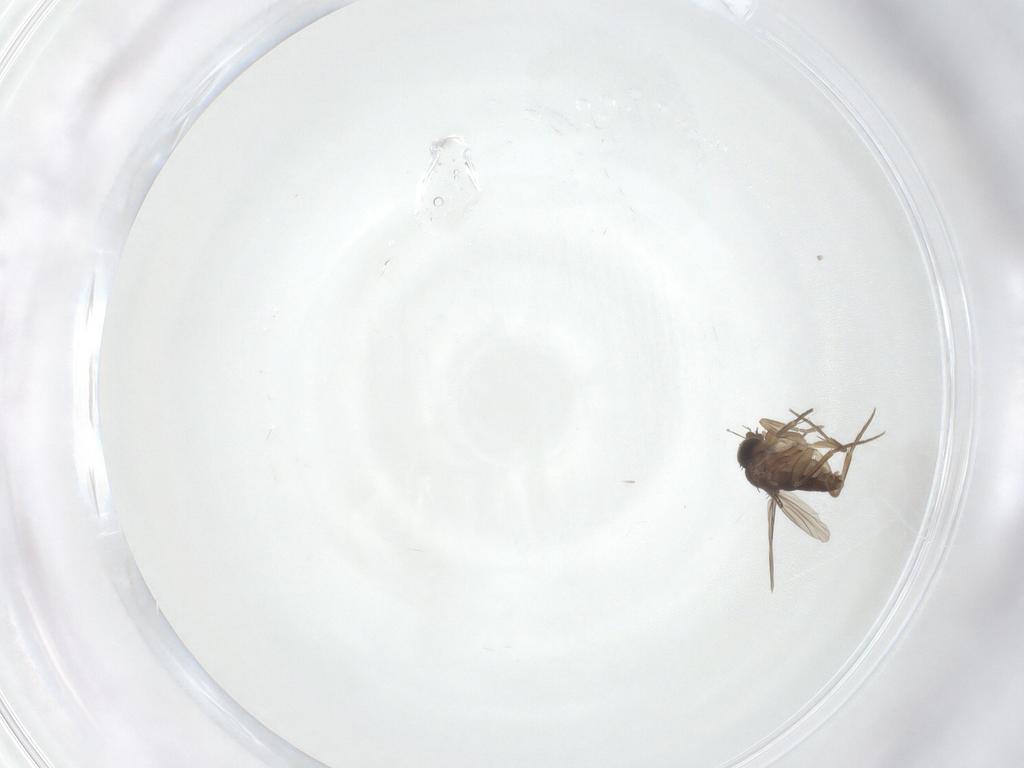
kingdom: Animalia
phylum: Arthropoda
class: Insecta
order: Diptera
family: Phoridae
